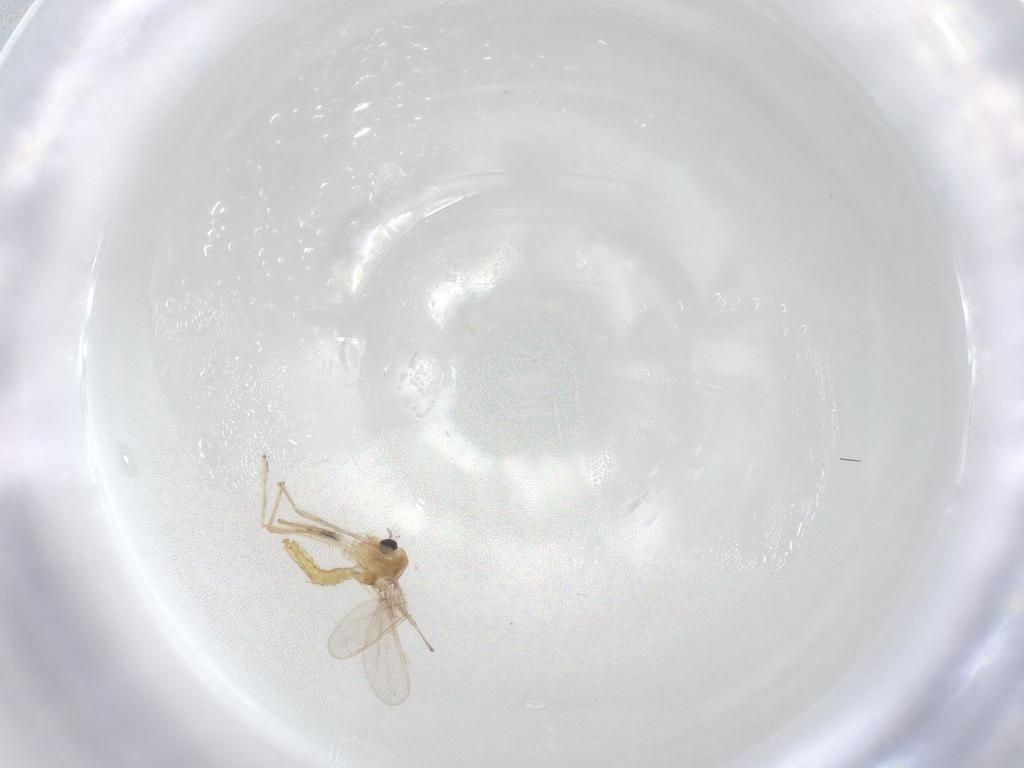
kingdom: Animalia
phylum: Arthropoda
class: Insecta
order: Diptera
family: Chironomidae
